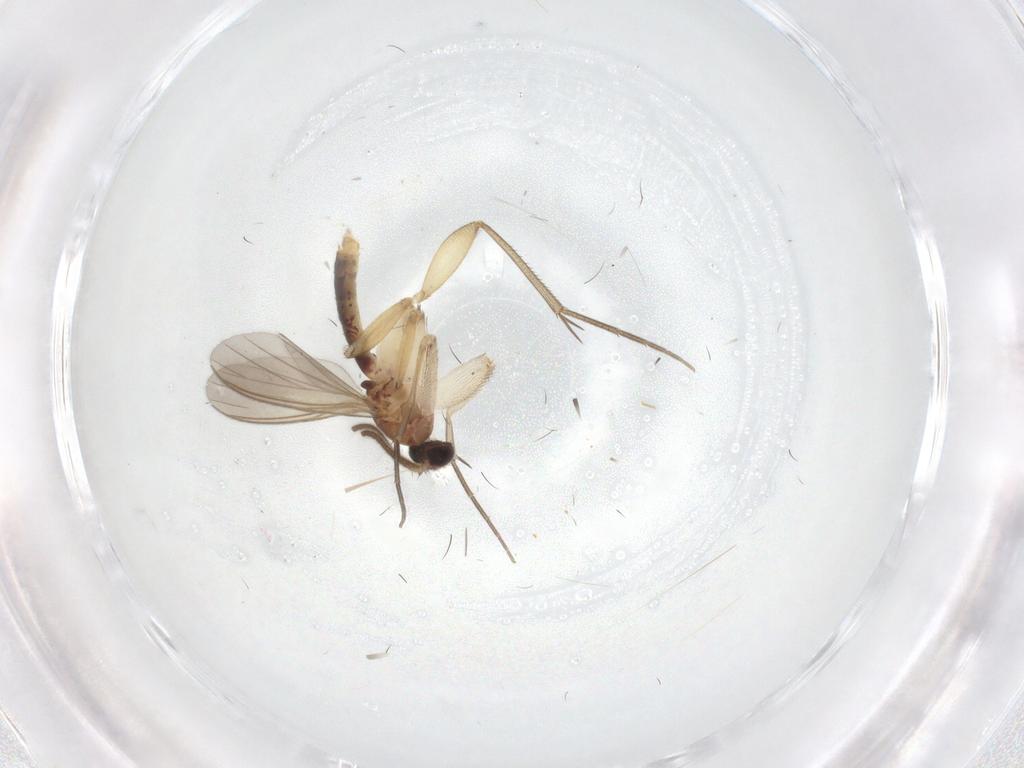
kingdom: Animalia
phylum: Arthropoda
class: Insecta
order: Diptera
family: Mycetophilidae
